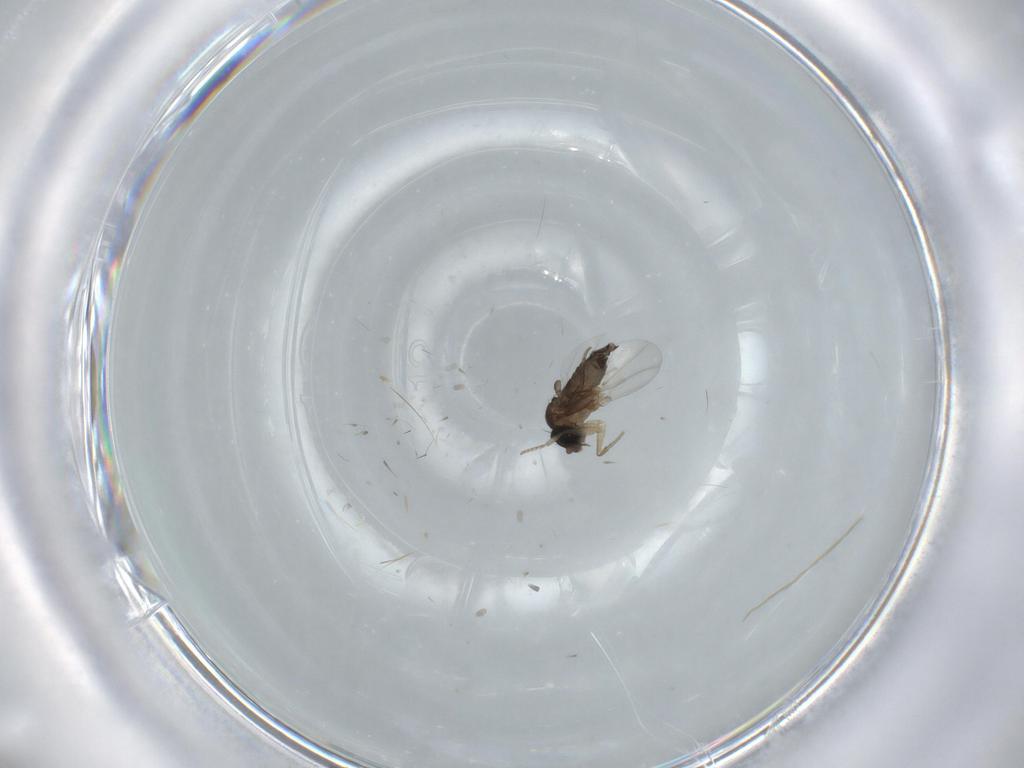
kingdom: Animalia
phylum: Arthropoda
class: Insecta
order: Diptera
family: Phoridae
